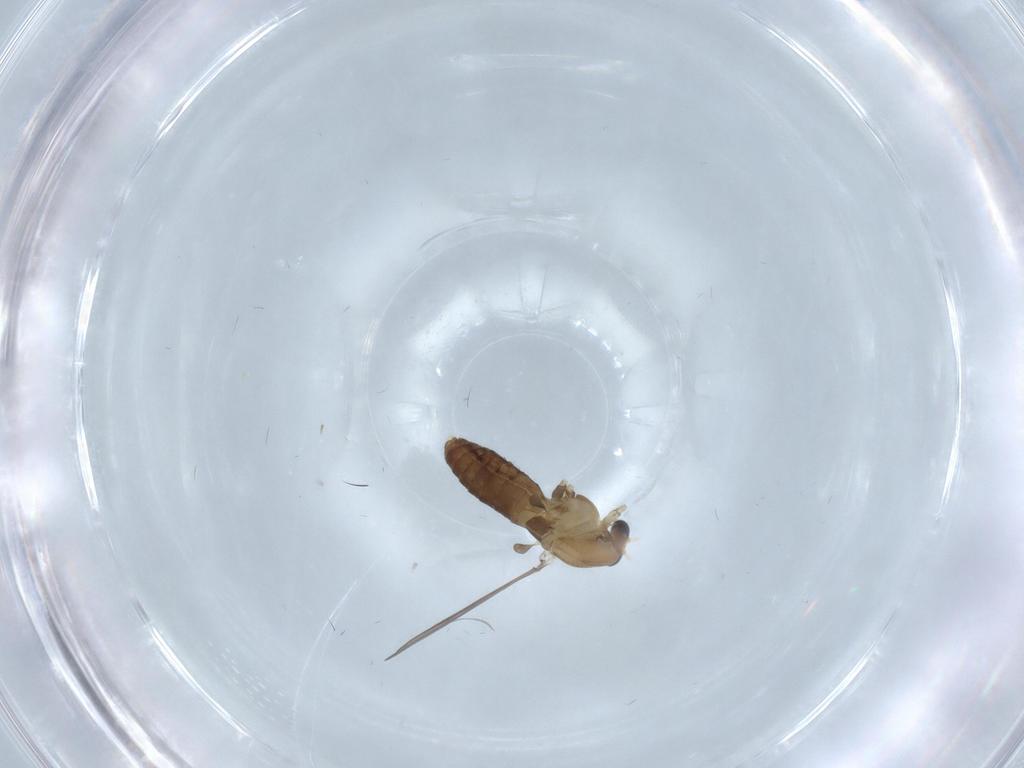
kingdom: Animalia
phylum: Arthropoda
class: Insecta
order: Diptera
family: Chironomidae
